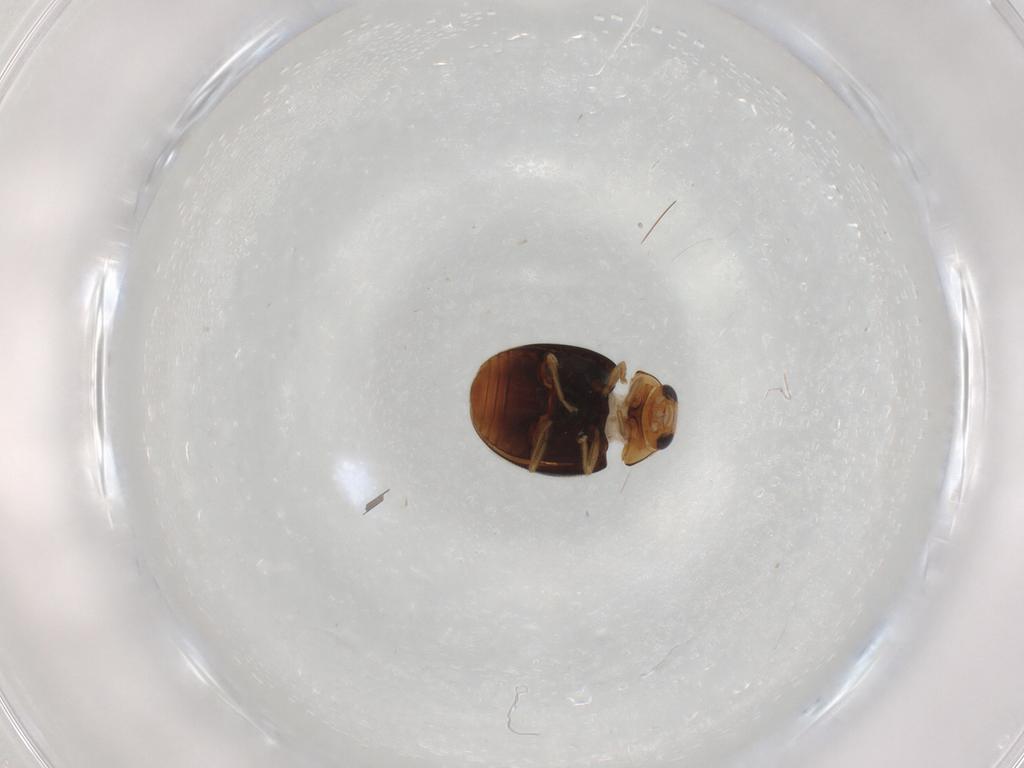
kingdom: Animalia
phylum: Arthropoda
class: Insecta
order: Coleoptera
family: Coccinellidae
